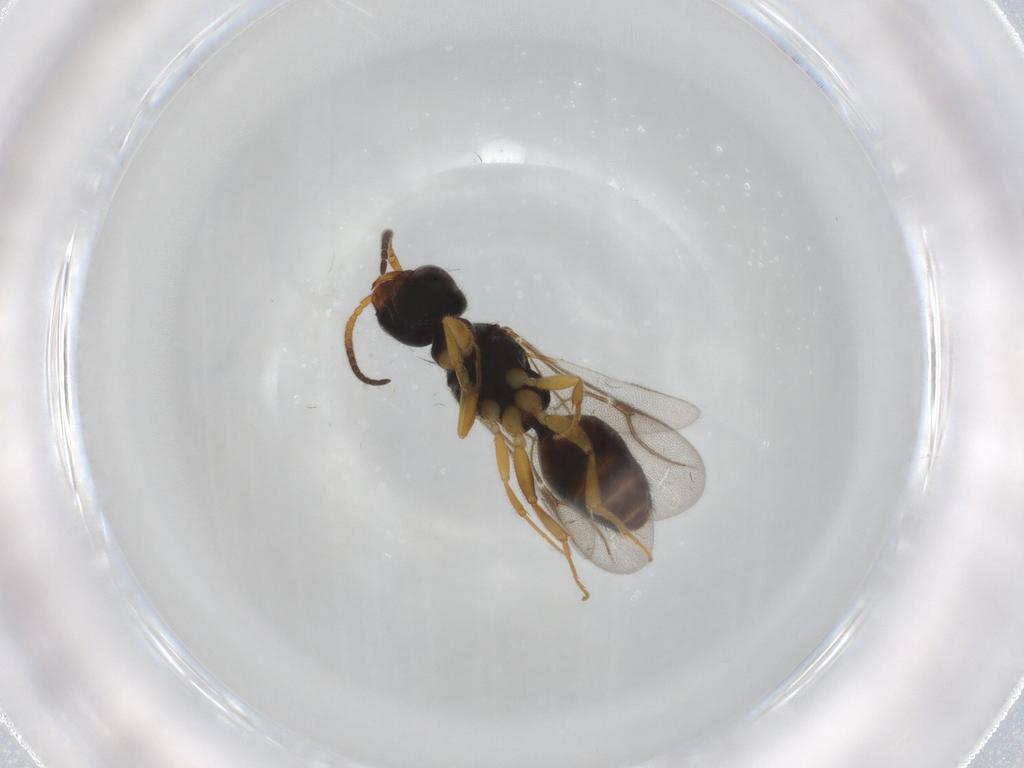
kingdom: Animalia
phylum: Arthropoda
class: Insecta
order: Hymenoptera
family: Bethylidae
